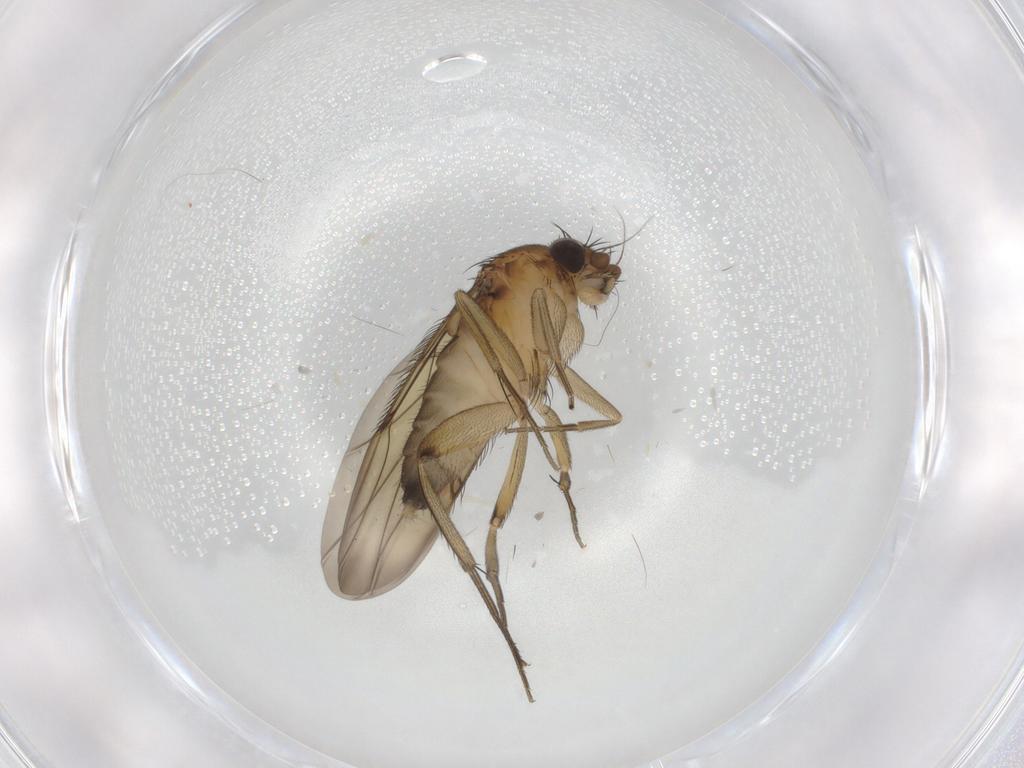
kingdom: Animalia
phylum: Arthropoda
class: Insecta
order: Diptera
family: Phoridae
